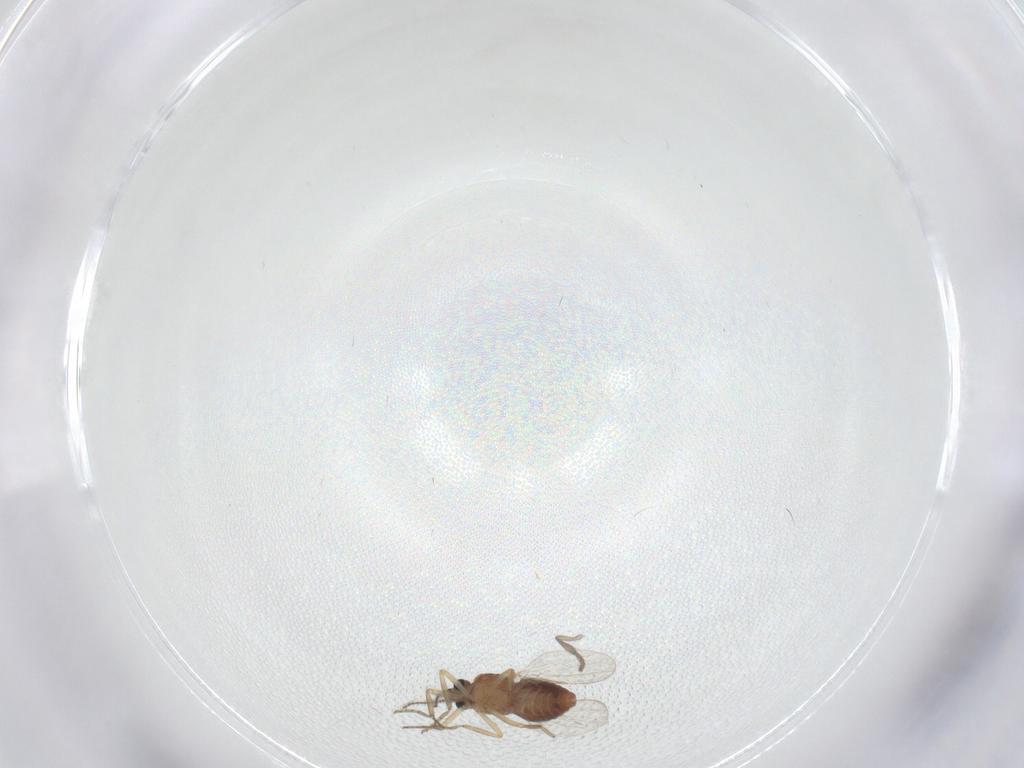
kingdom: Animalia
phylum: Arthropoda
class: Insecta
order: Diptera
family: Ceratopogonidae
